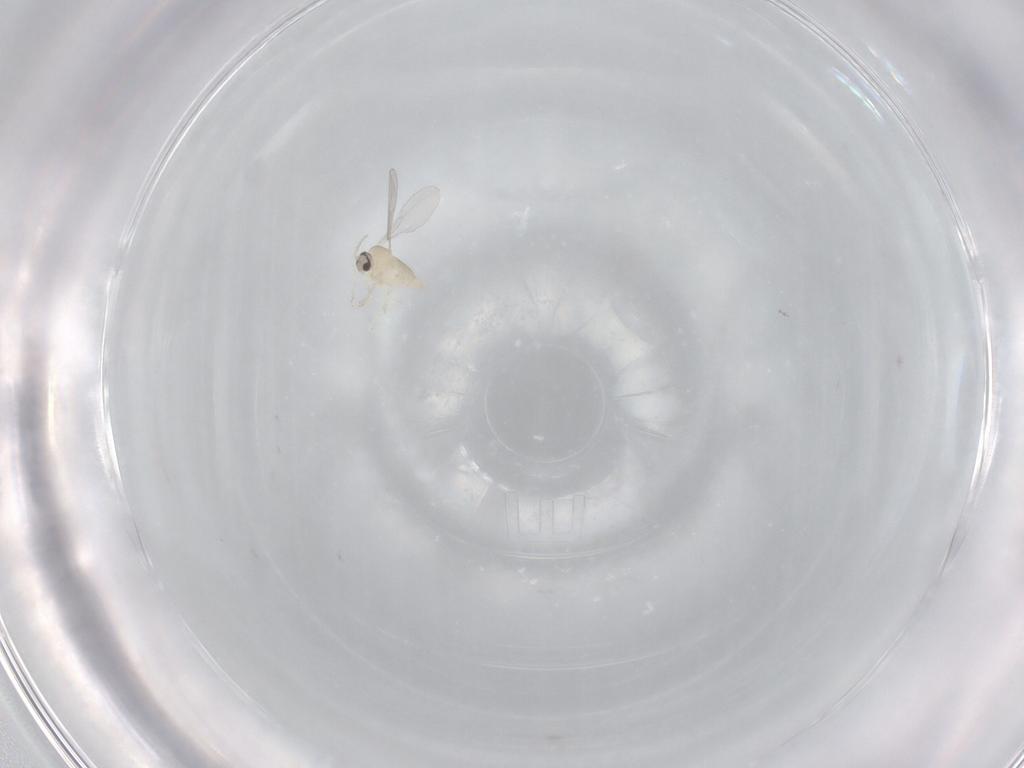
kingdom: Animalia
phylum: Arthropoda
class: Insecta
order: Diptera
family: Cecidomyiidae
